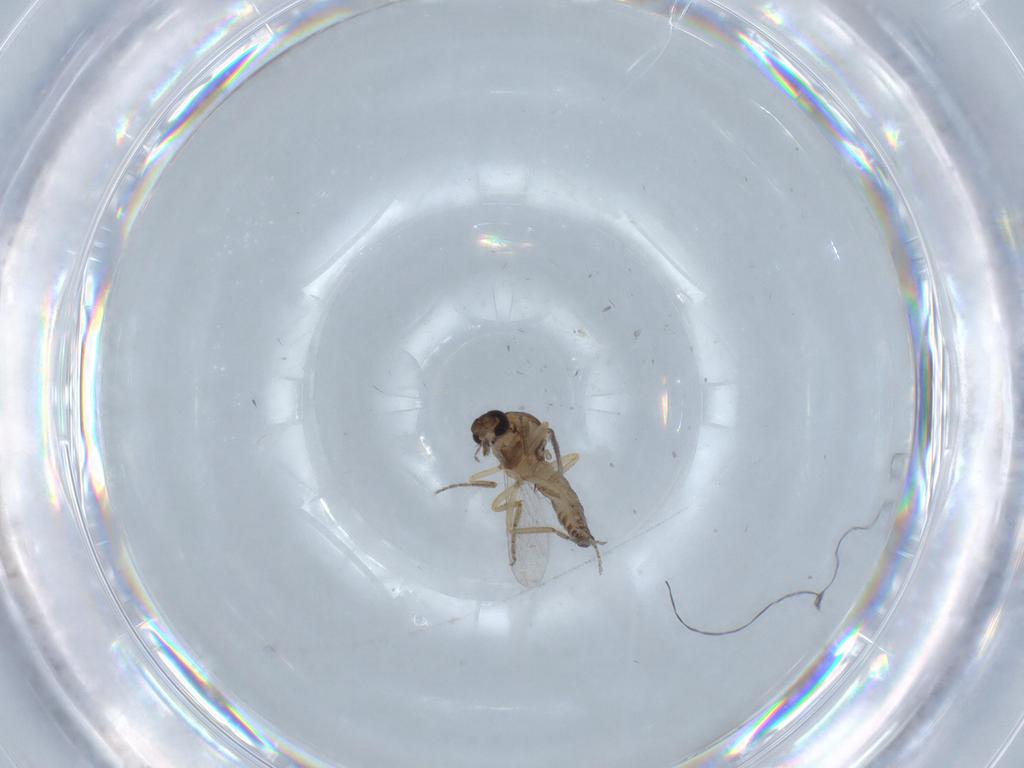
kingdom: Animalia
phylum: Arthropoda
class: Insecta
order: Diptera
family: Ceratopogonidae
